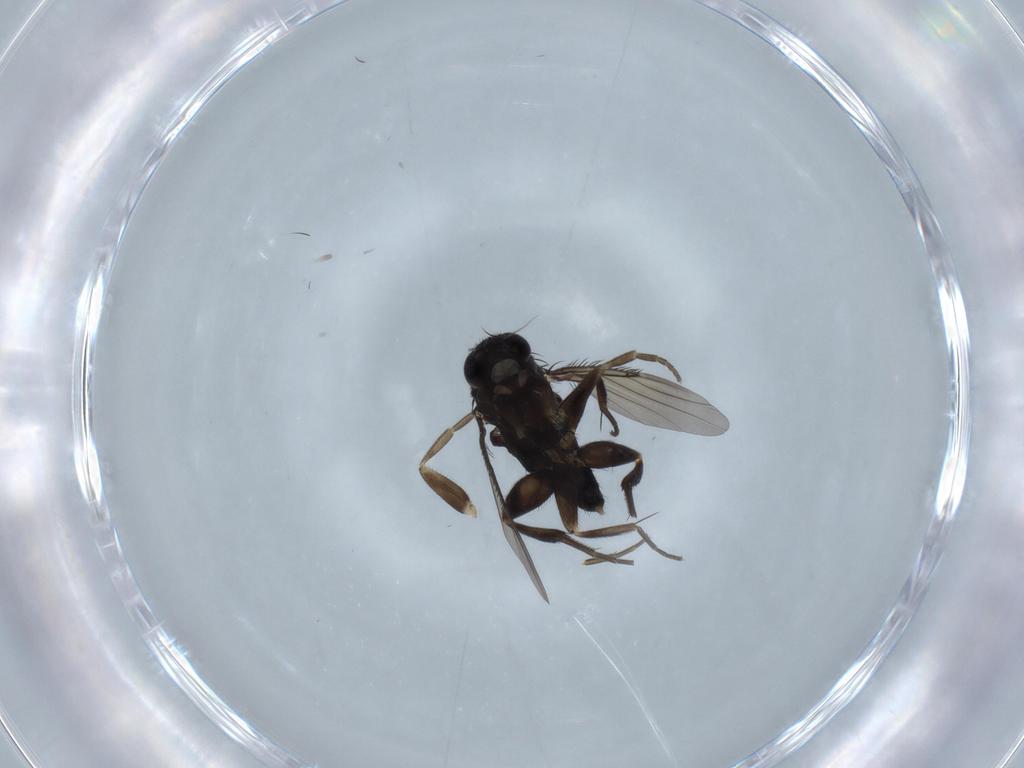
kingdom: Animalia
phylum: Arthropoda
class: Insecta
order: Diptera
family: Phoridae
